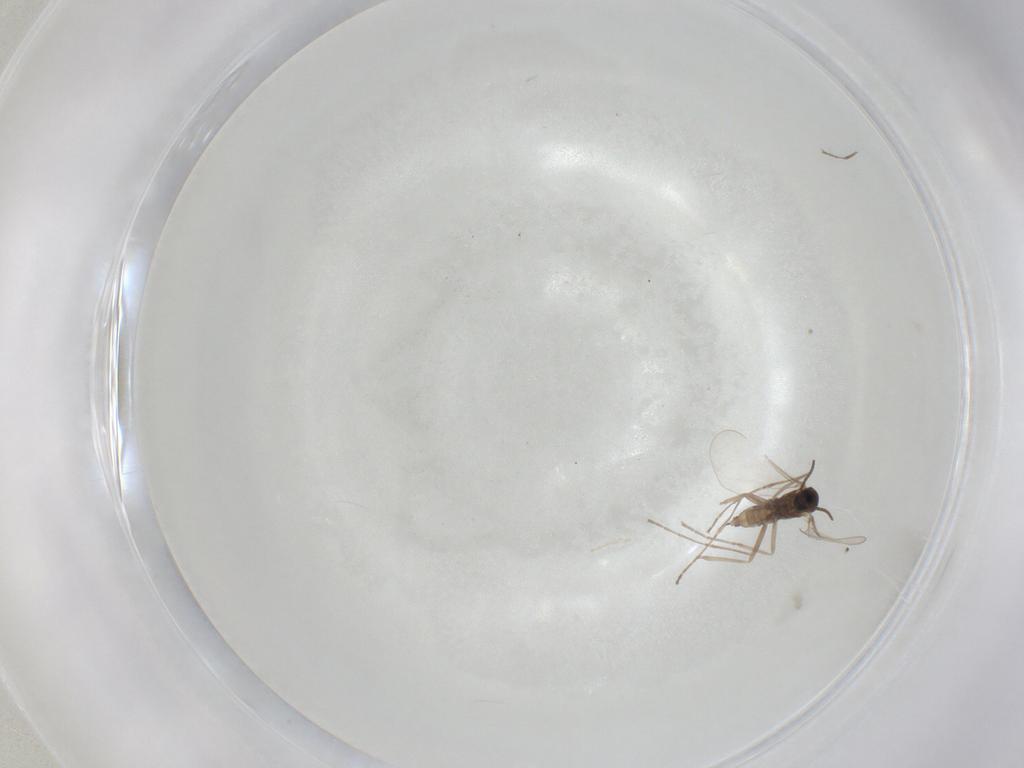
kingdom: Animalia
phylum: Arthropoda
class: Insecta
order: Diptera
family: Cecidomyiidae
